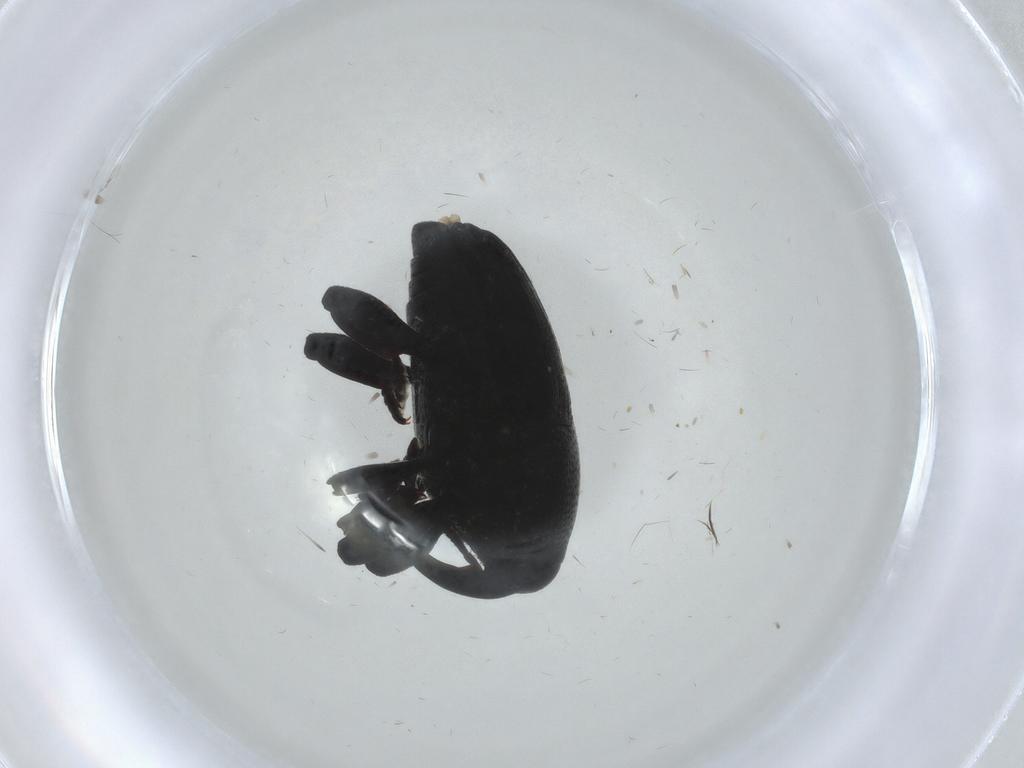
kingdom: Animalia
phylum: Arthropoda
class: Insecta
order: Coleoptera
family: Curculionidae
